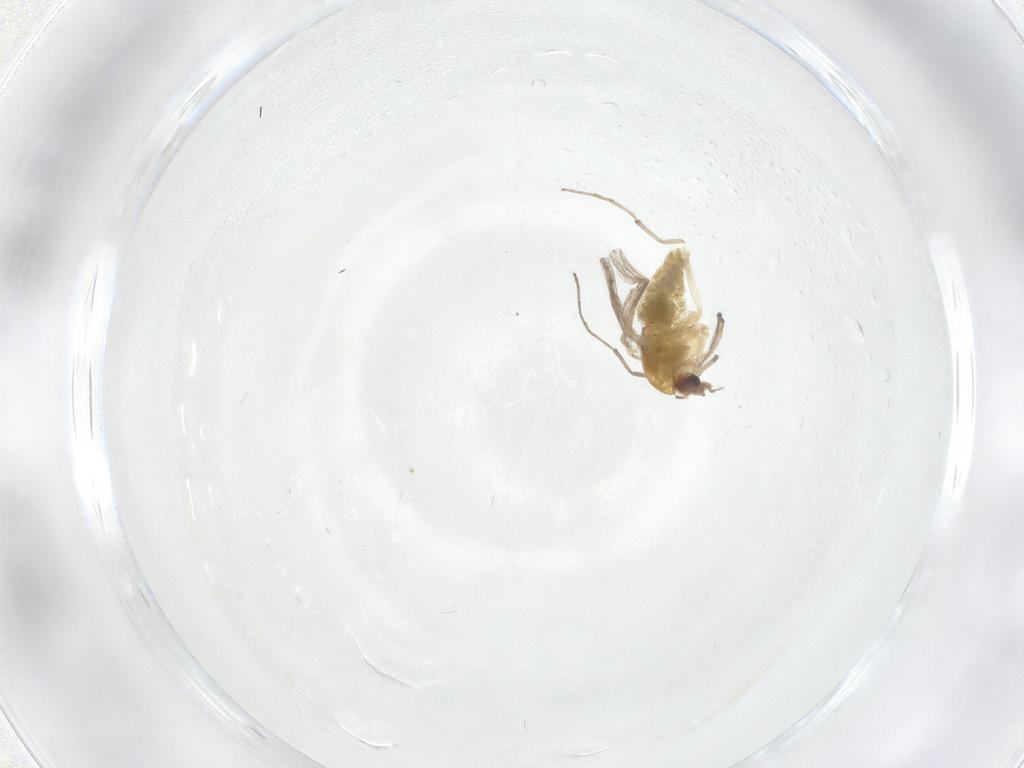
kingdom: Animalia
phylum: Arthropoda
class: Insecta
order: Diptera
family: Chironomidae
